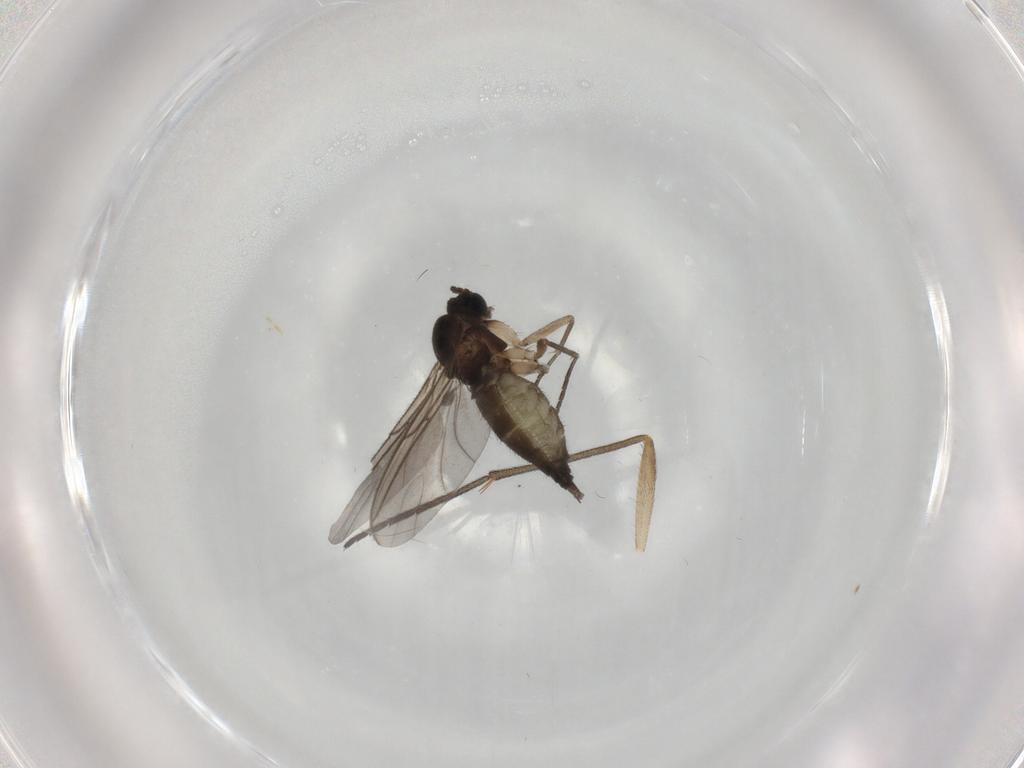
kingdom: Animalia
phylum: Arthropoda
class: Insecta
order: Diptera
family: Sciaridae
